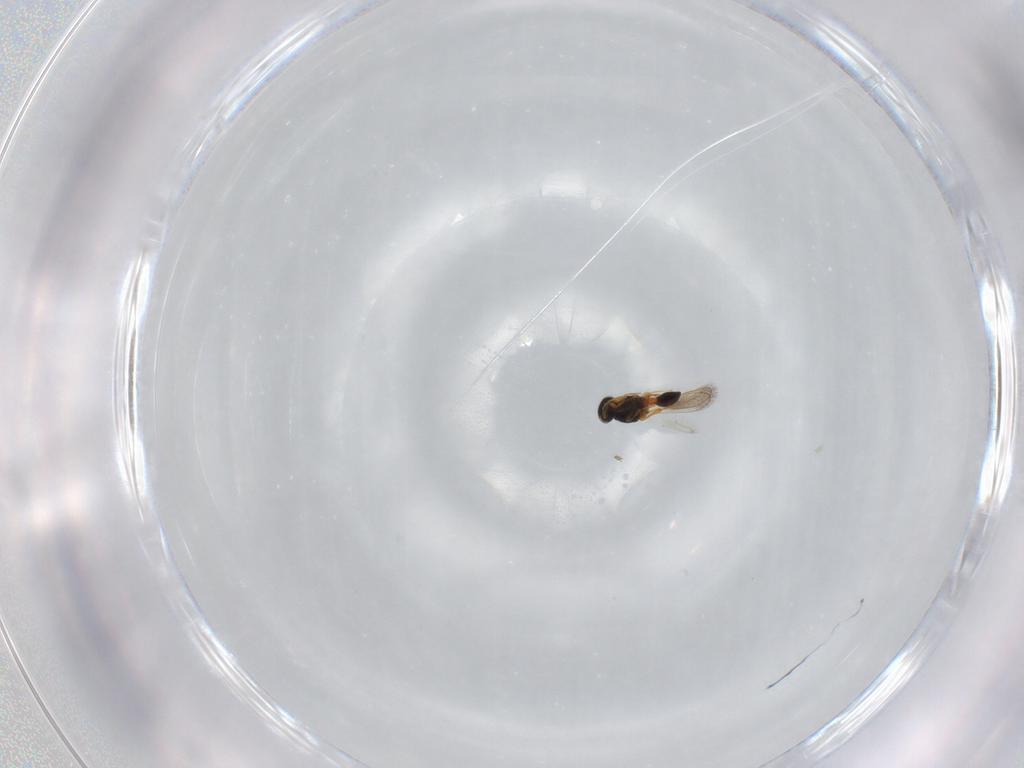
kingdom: Animalia
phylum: Arthropoda
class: Insecta
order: Hymenoptera
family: Platygastridae
